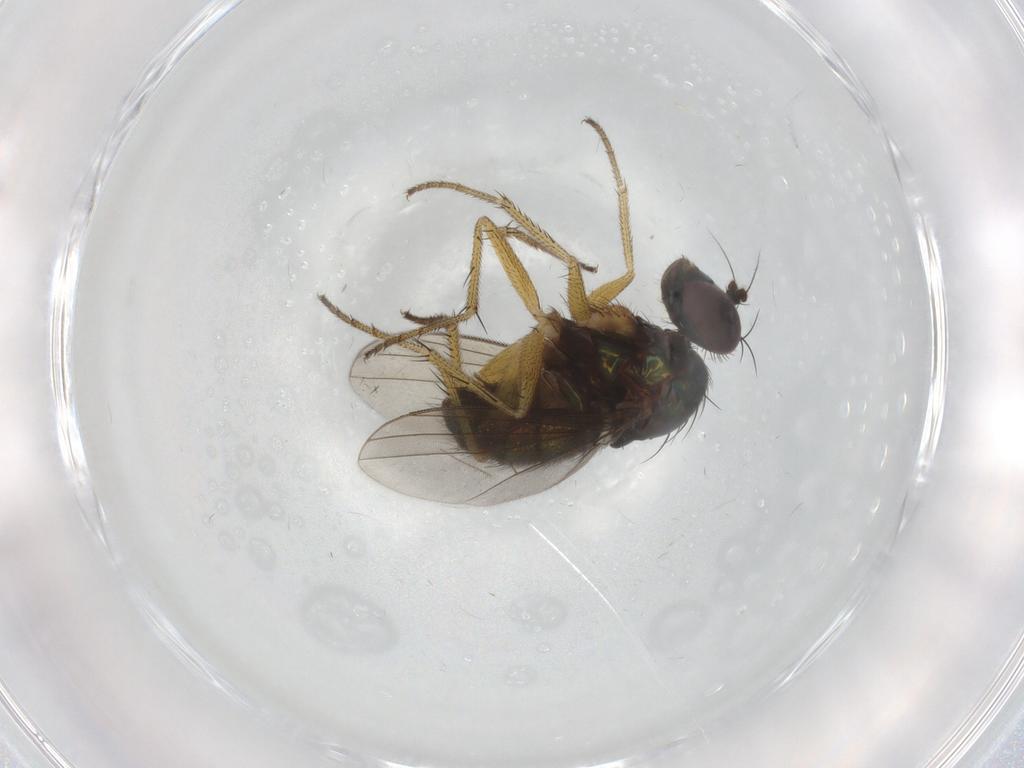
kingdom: Animalia
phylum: Arthropoda
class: Insecta
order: Diptera
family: Dolichopodidae
